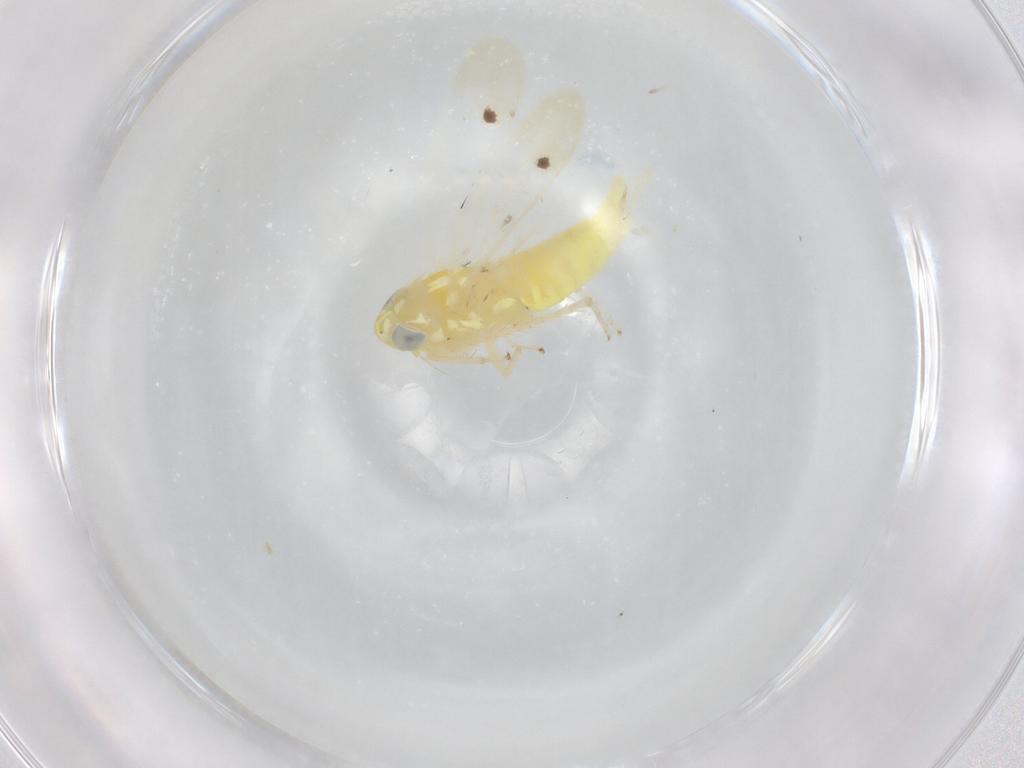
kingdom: Animalia
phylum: Arthropoda
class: Insecta
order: Hemiptera
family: Cicadellidae
